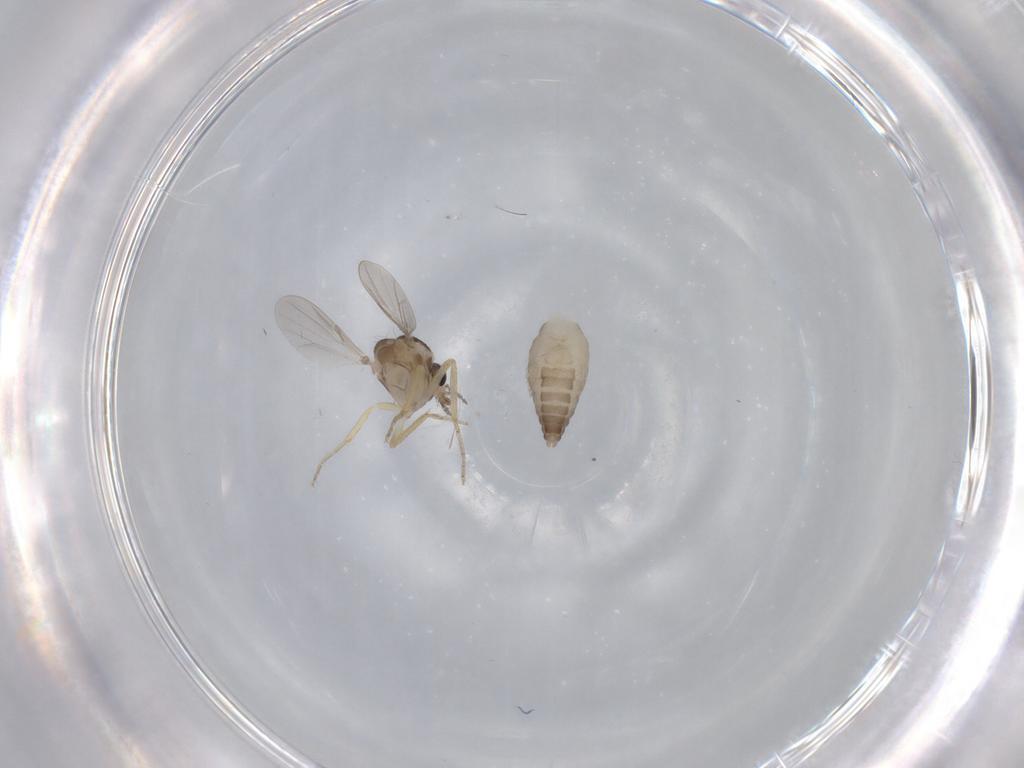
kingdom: Animalia
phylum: Arthropoda
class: Insecta
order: Diptera
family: Ceratopogonidae
